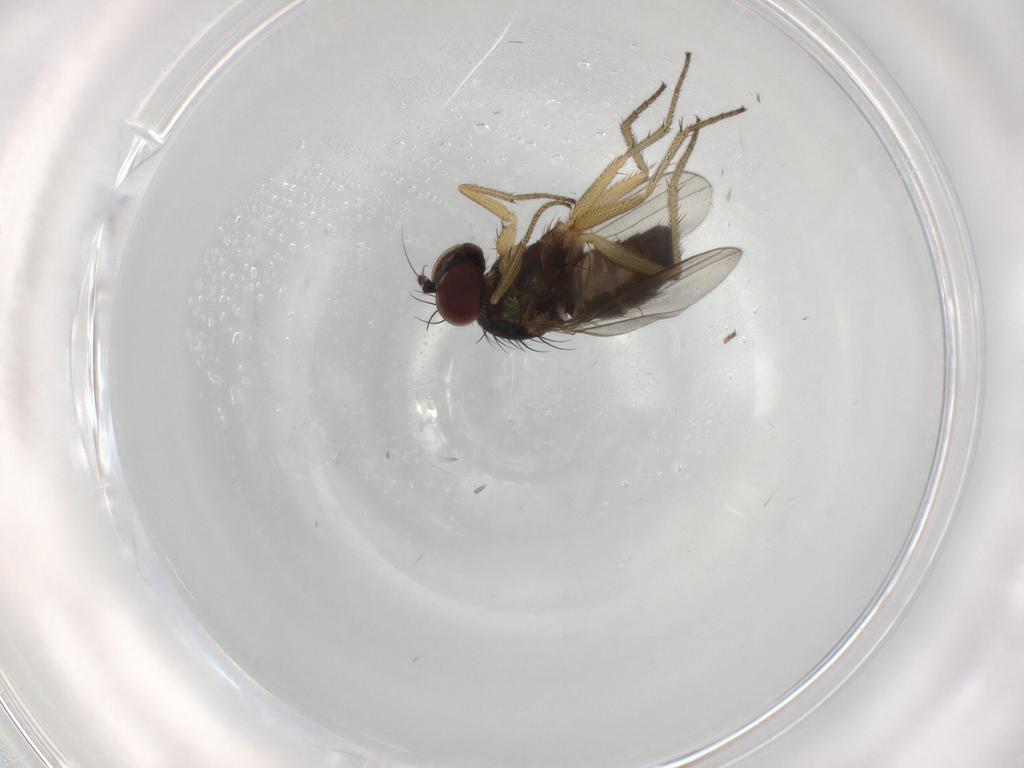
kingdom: Animalia
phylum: Arthropoda
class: Insecta
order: Diptera
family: Dolichopodidae
